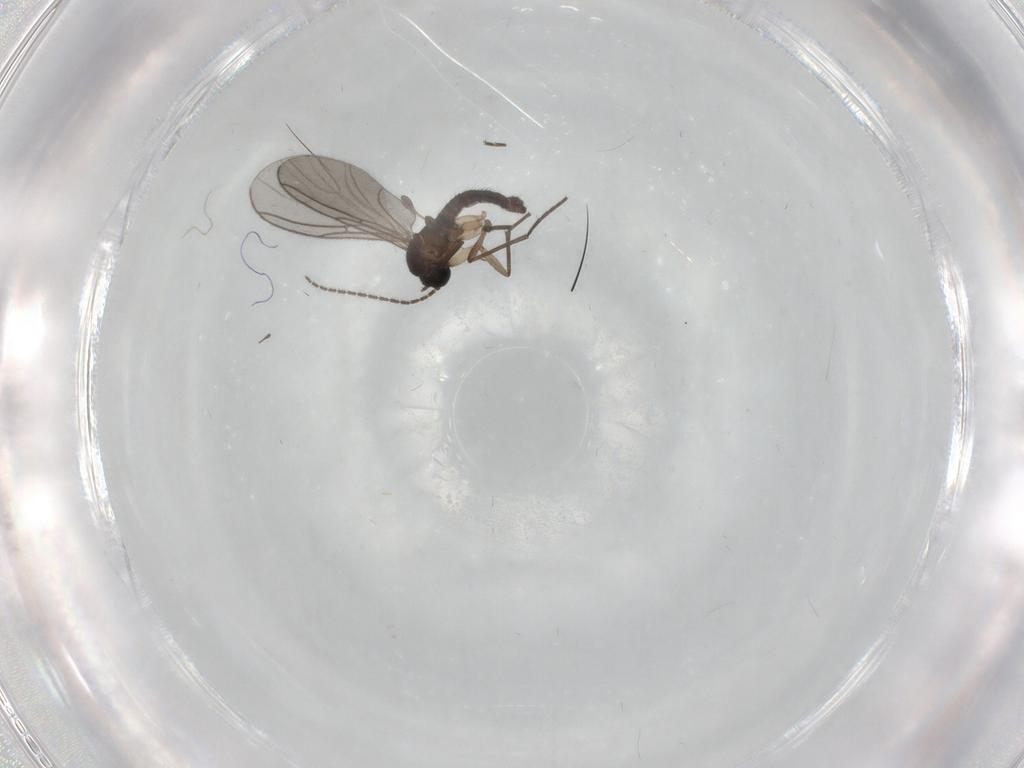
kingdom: Animalia
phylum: Arthropoda
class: Insecta
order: Diptera
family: Sciaridae
